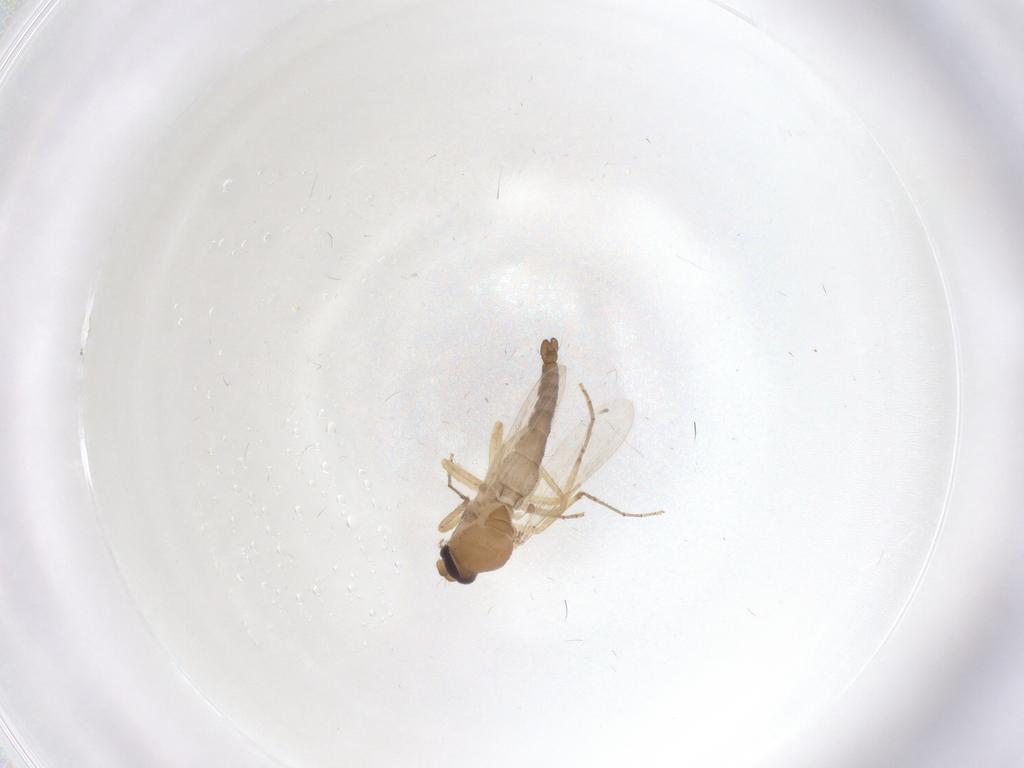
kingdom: Animalia
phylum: Arthropoda
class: Insecta
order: Diptera
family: Ceratopogonidae
